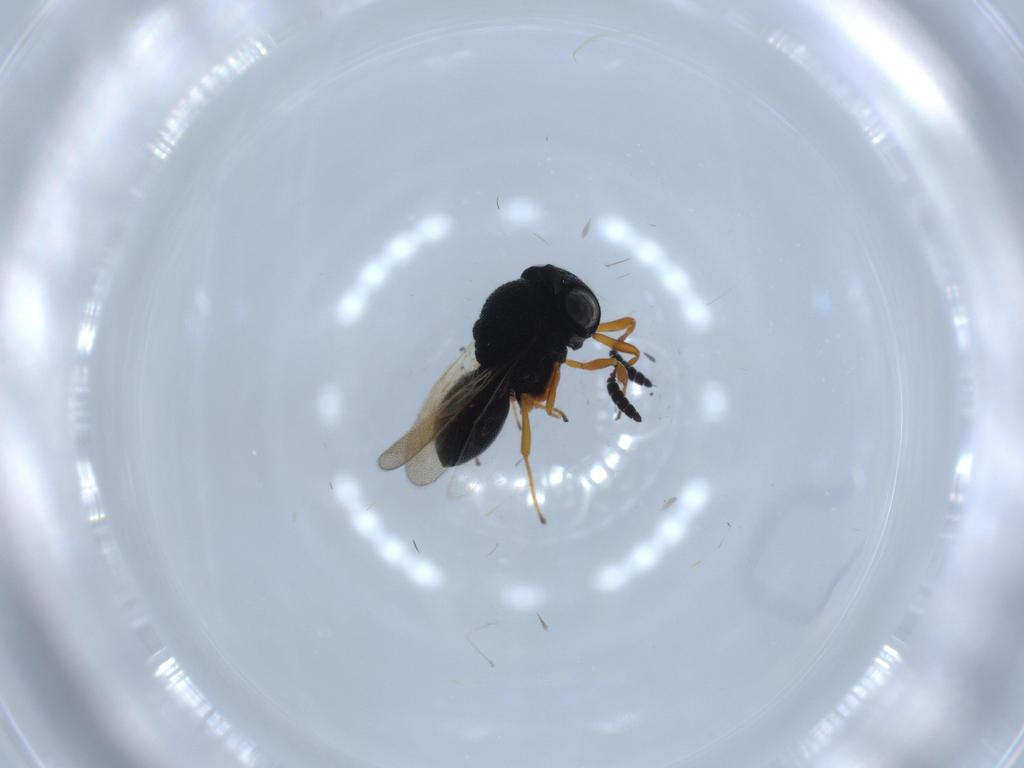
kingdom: Animalia
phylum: Arthropoda
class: Insecta
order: Hymenoptera
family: Scelionidae
